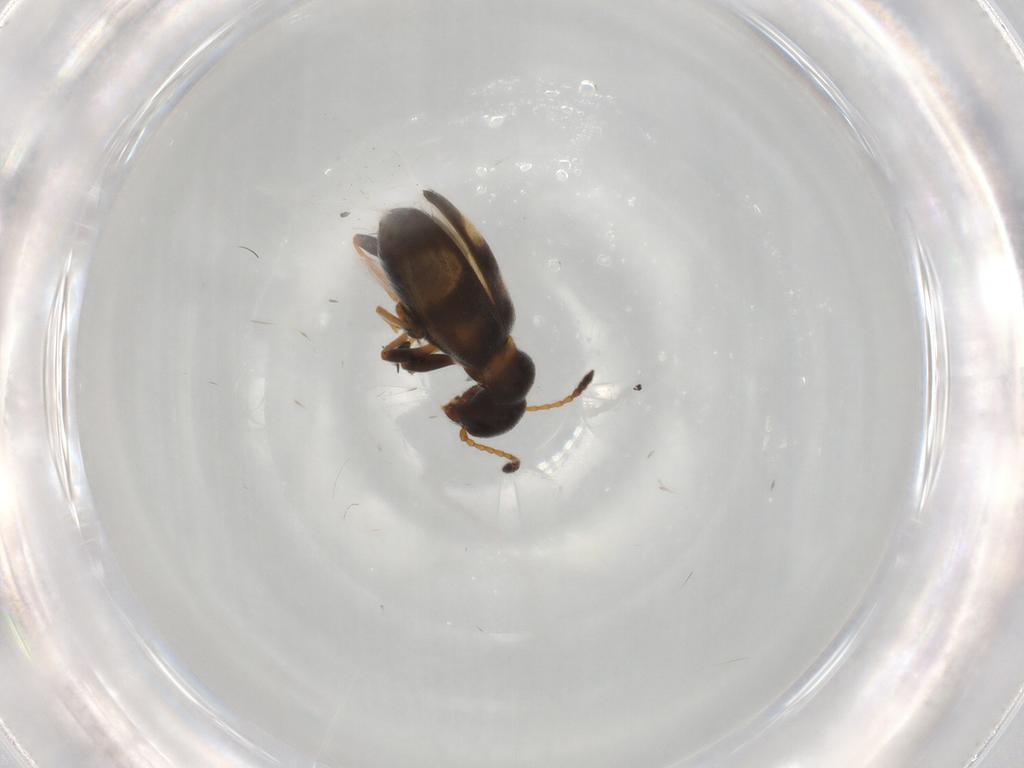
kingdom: Animalia
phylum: Arthropoda
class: Insecta
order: Coleoptera
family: Anthicidae
